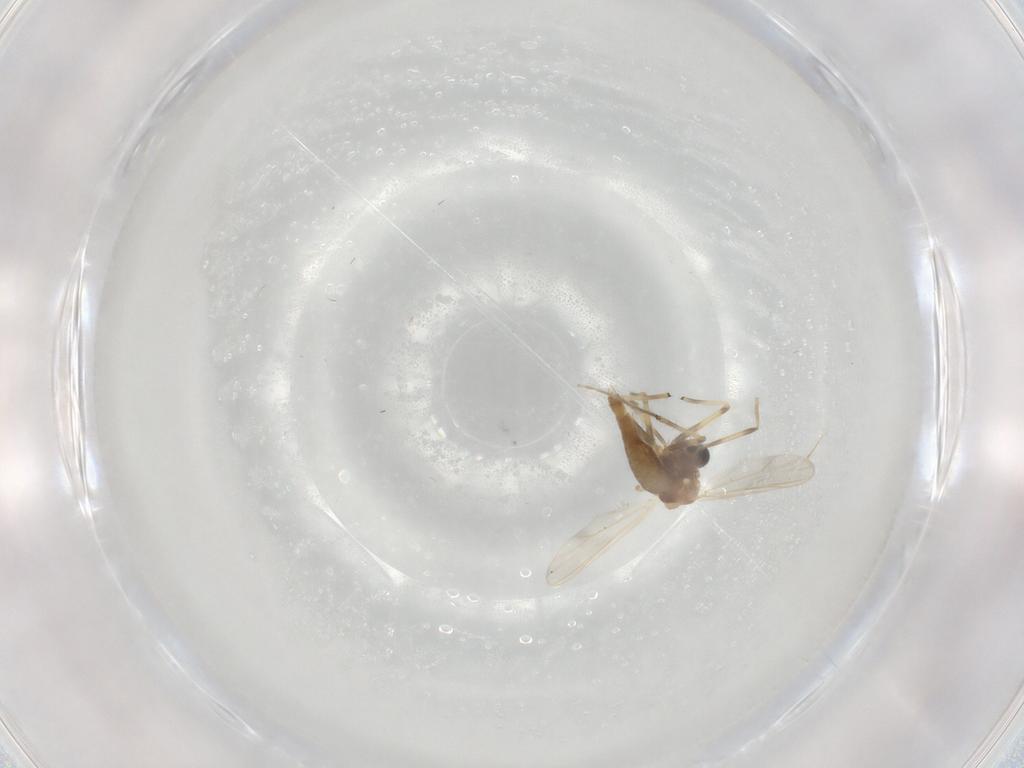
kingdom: Animalia
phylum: Arthropoda
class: Insecta
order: Diptera
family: Chironomidae
